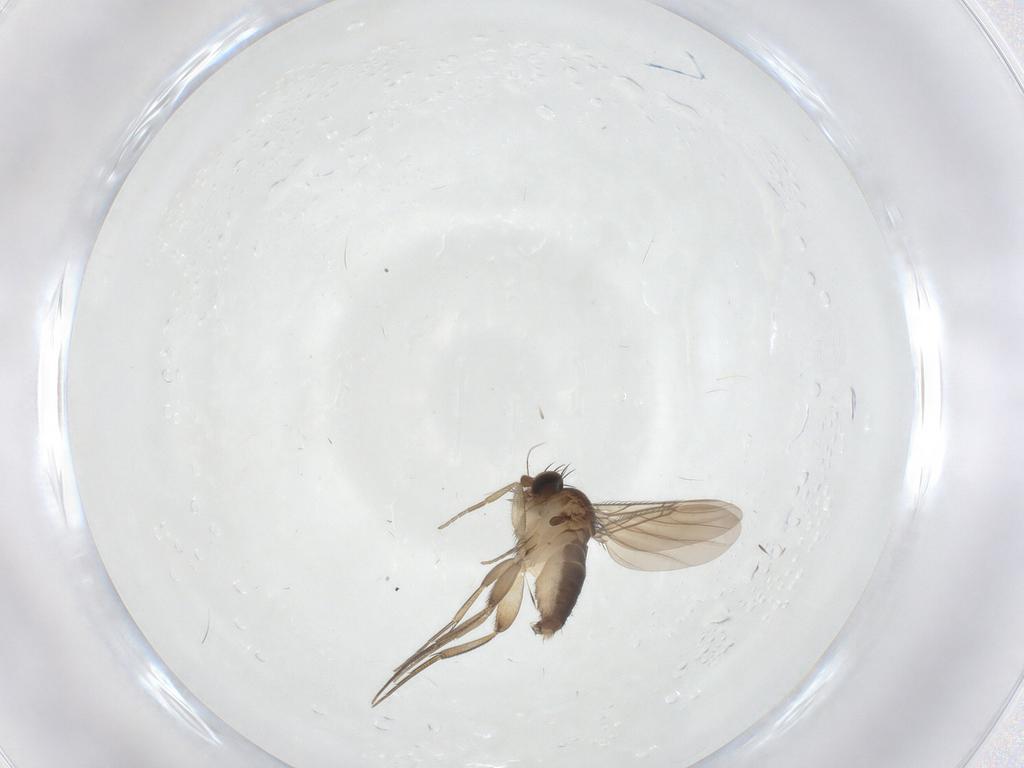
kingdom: Animalia
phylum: Arthropoda
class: Insecta
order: Diptera
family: Phoridae
